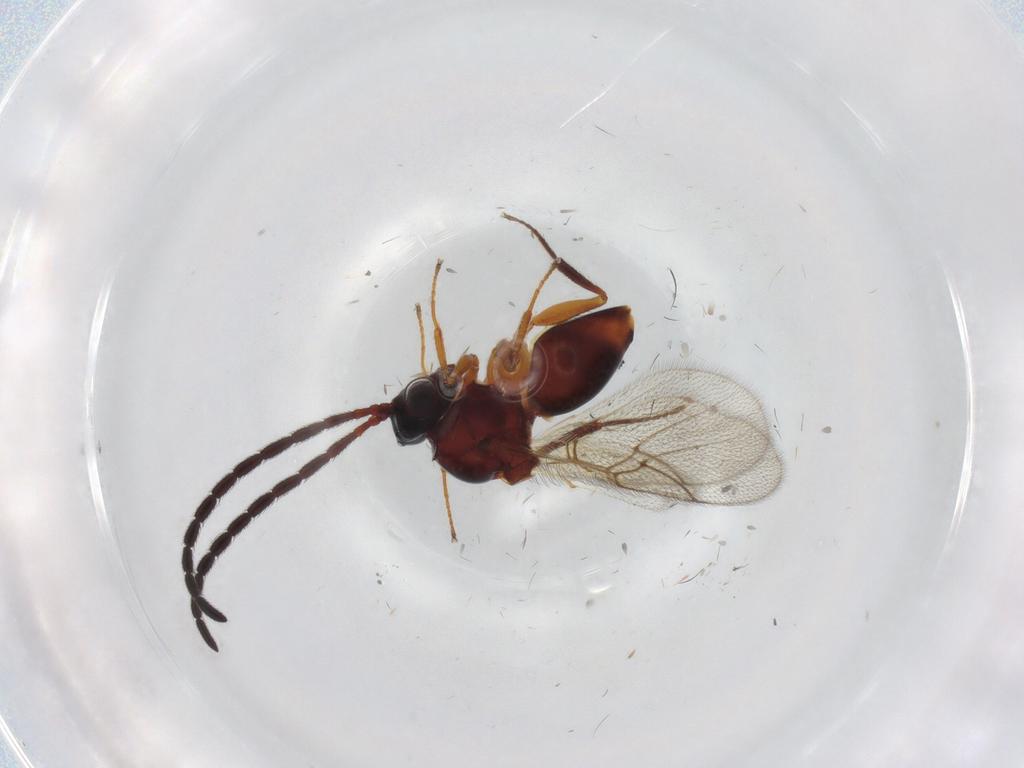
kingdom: Animalia
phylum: Arthropoda
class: Insecta
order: Hymenoptera
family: Figitidae
